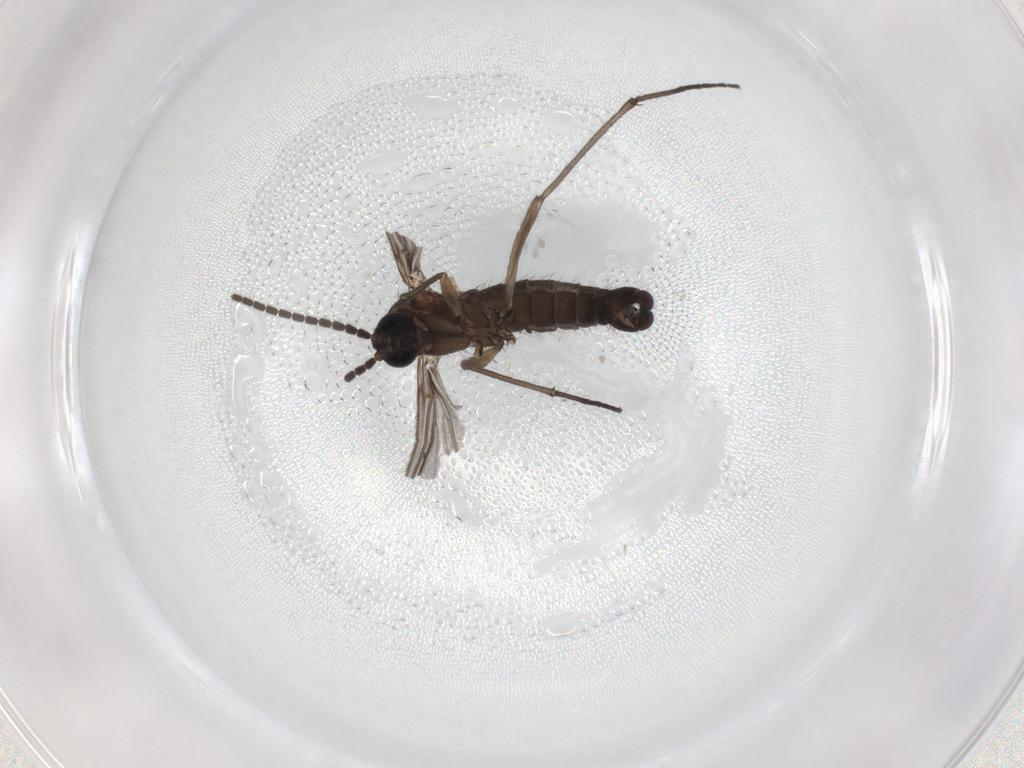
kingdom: Animalia
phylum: Arthropoda
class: Insecta
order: Diptera
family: Sciaridae
